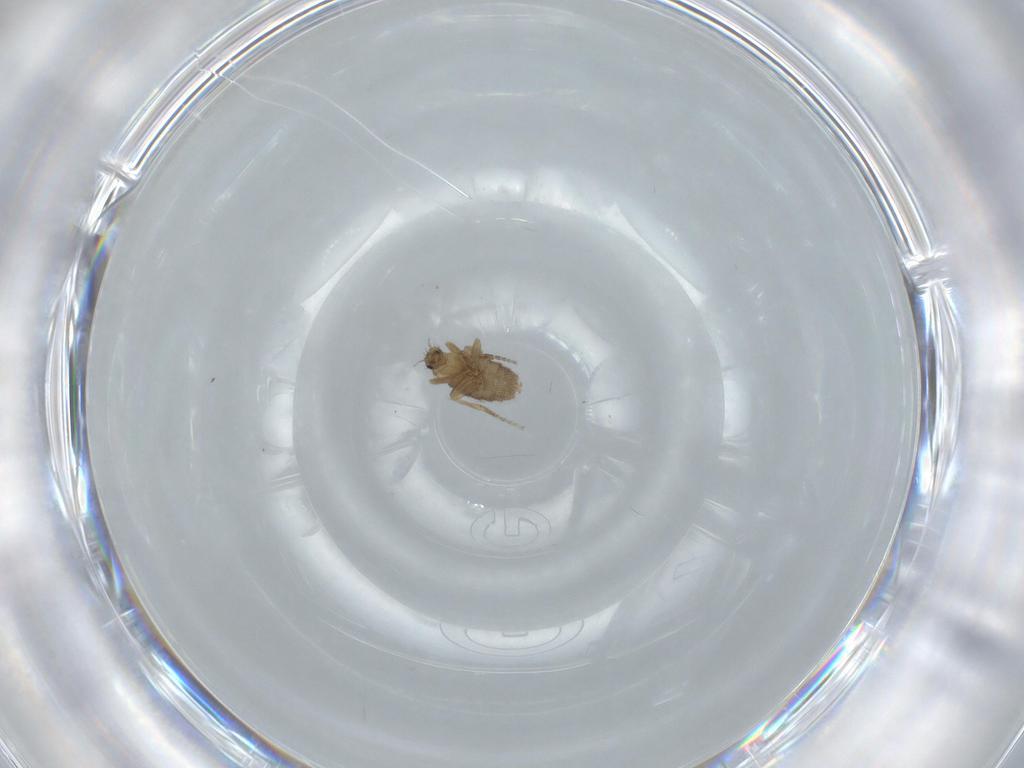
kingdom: Animalia
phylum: Arthropoda
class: Insecta
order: Diptera
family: Phoridae
